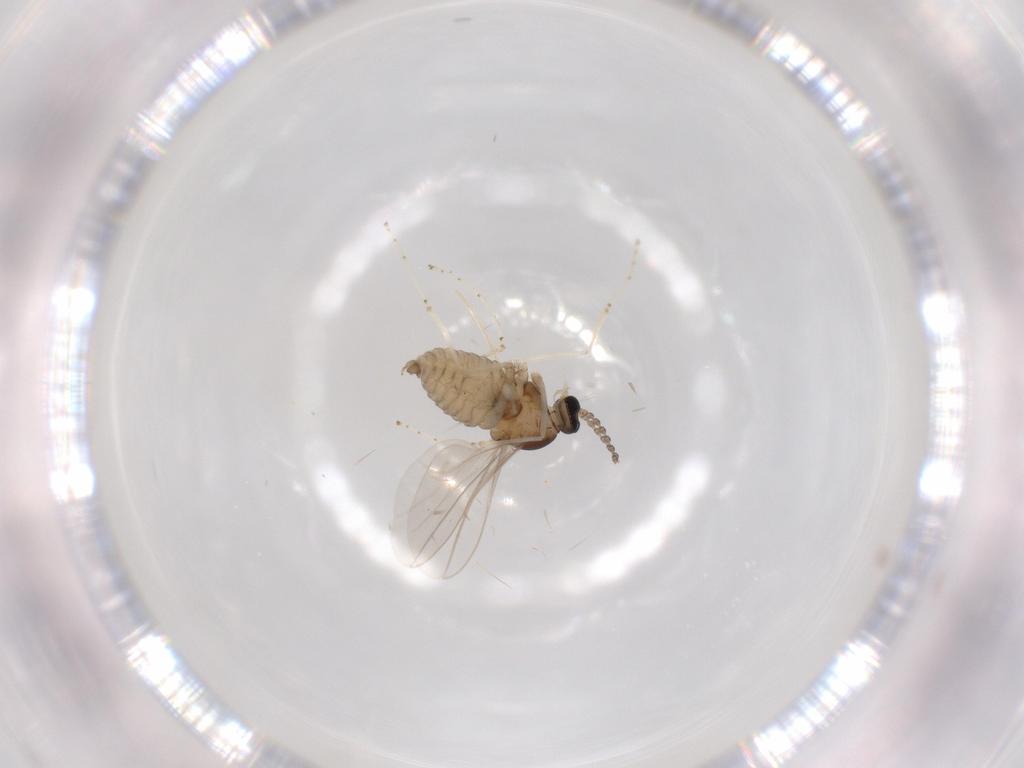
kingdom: Animalia
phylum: Arthropoda
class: Insecta
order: Diptera
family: Cecidomyiidae
